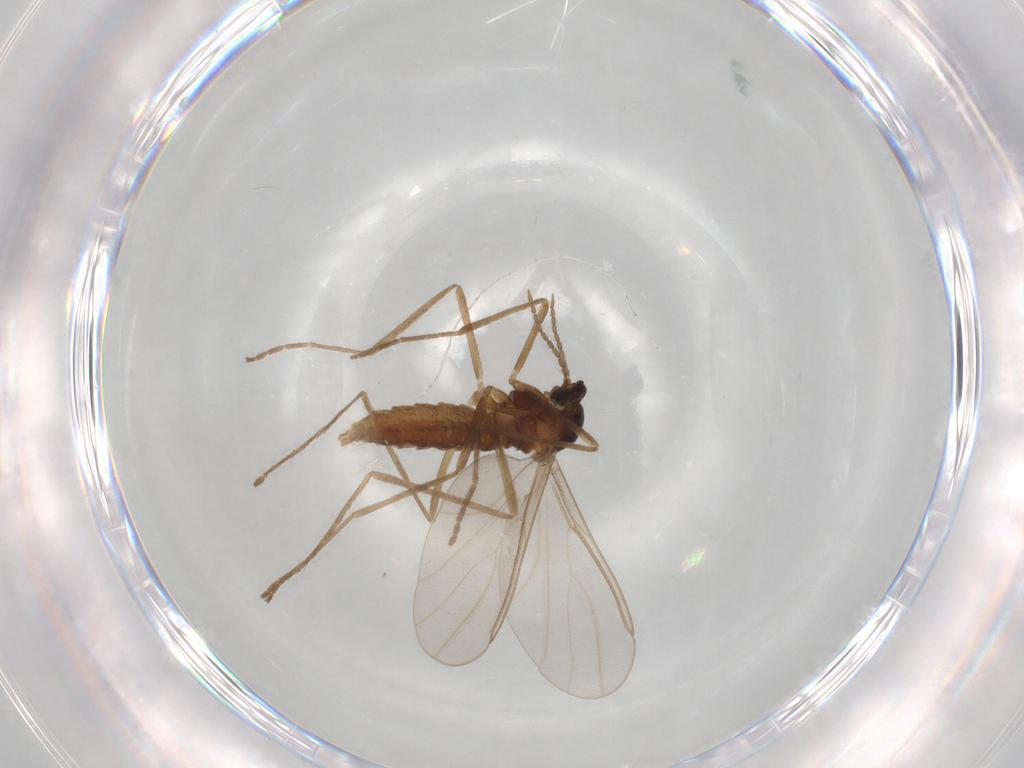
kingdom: Animalia
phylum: Arthropoda
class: Insecta
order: Diptera
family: Cecidomyiidae
